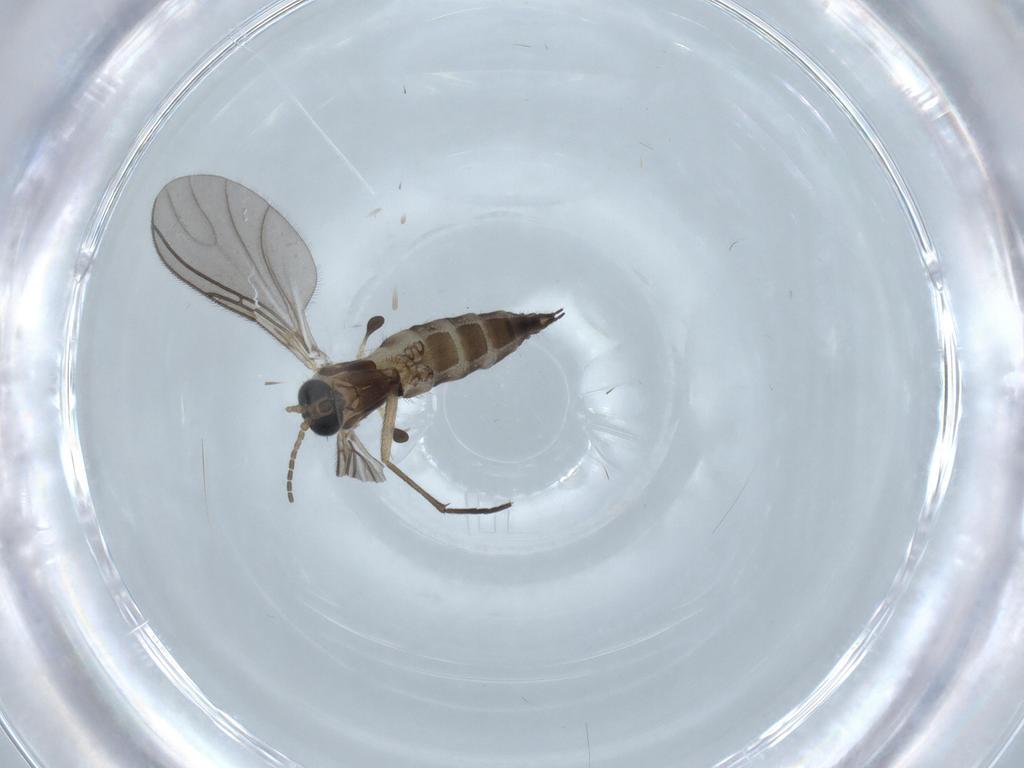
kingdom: Animalia
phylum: Arthropoda
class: Insecta
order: Diptera
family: Sciaridae
